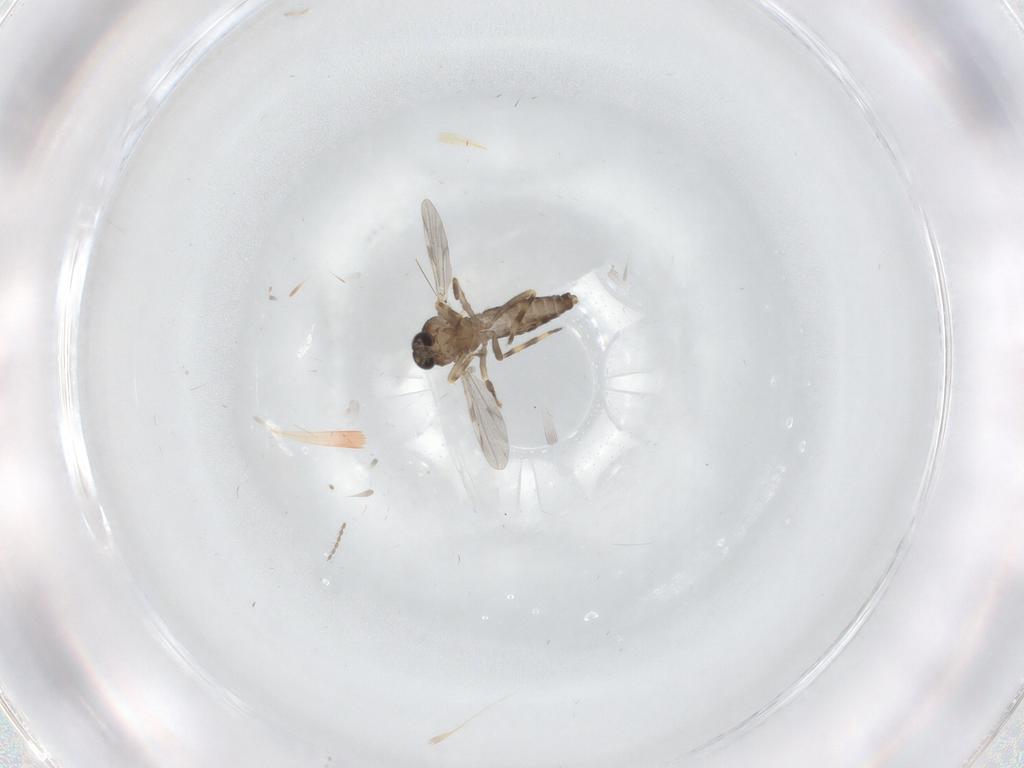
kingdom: Animalia
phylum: Arthropoda
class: Insecta
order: Diptera
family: Ceratopogonidae
